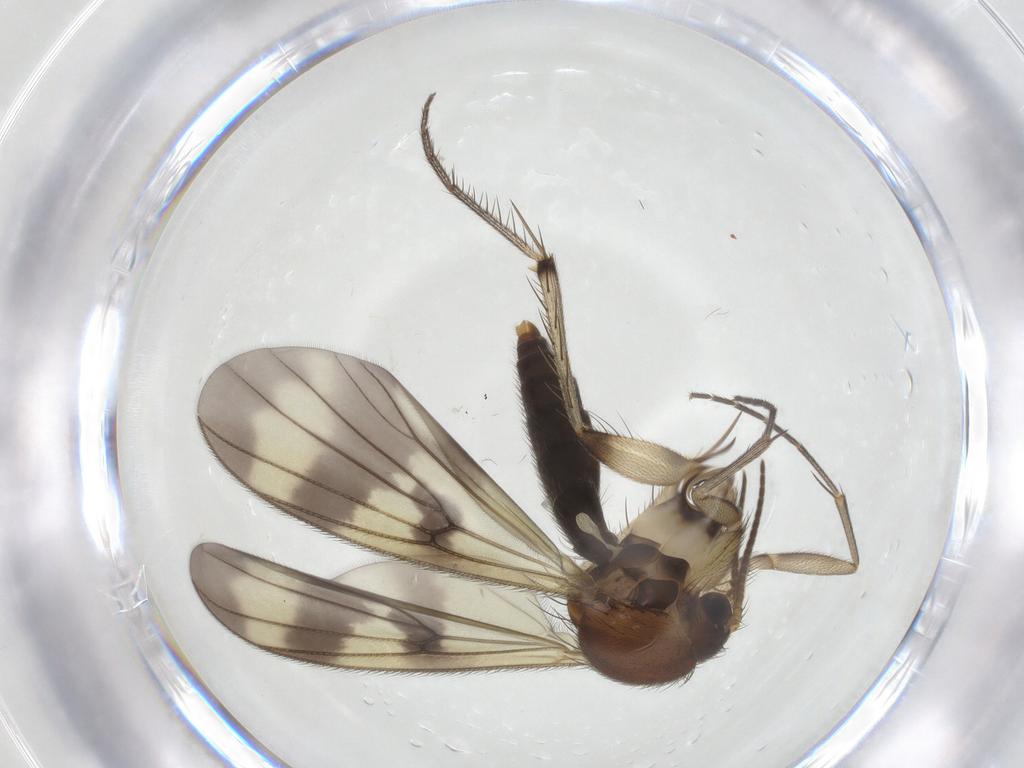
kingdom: Animalia
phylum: Arthropoda
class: Insecta
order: Diptera
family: Mycetophilidae
